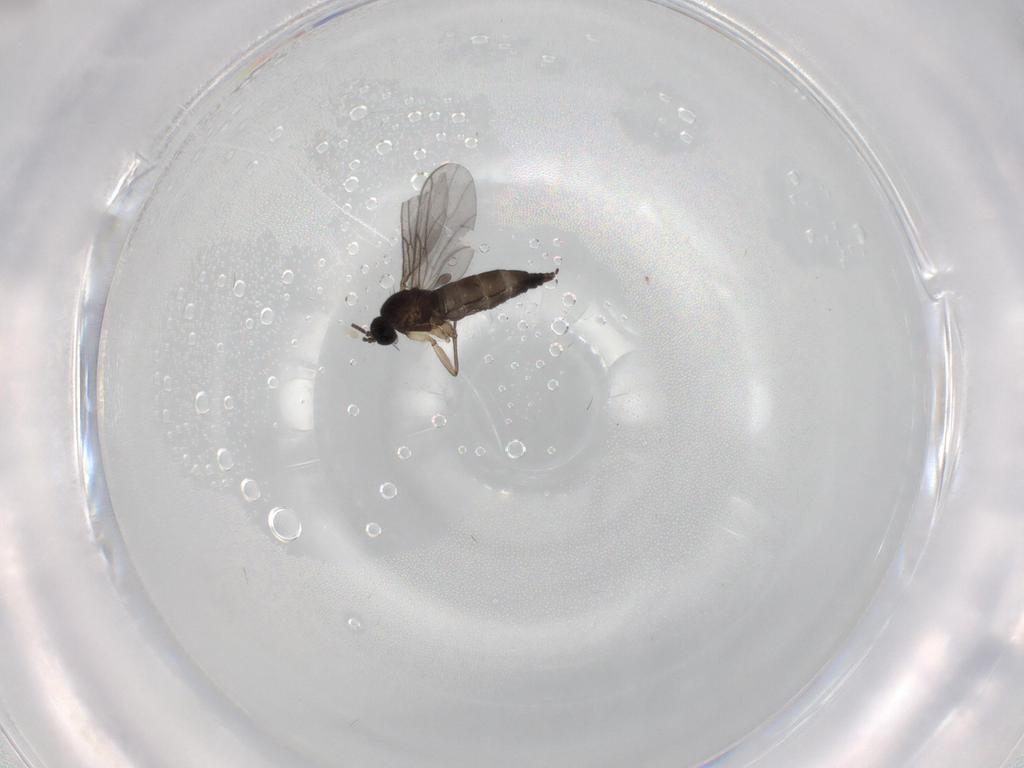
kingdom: Animalia
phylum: Arthropoda
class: Insecta
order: Diptera
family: Sciaridae
